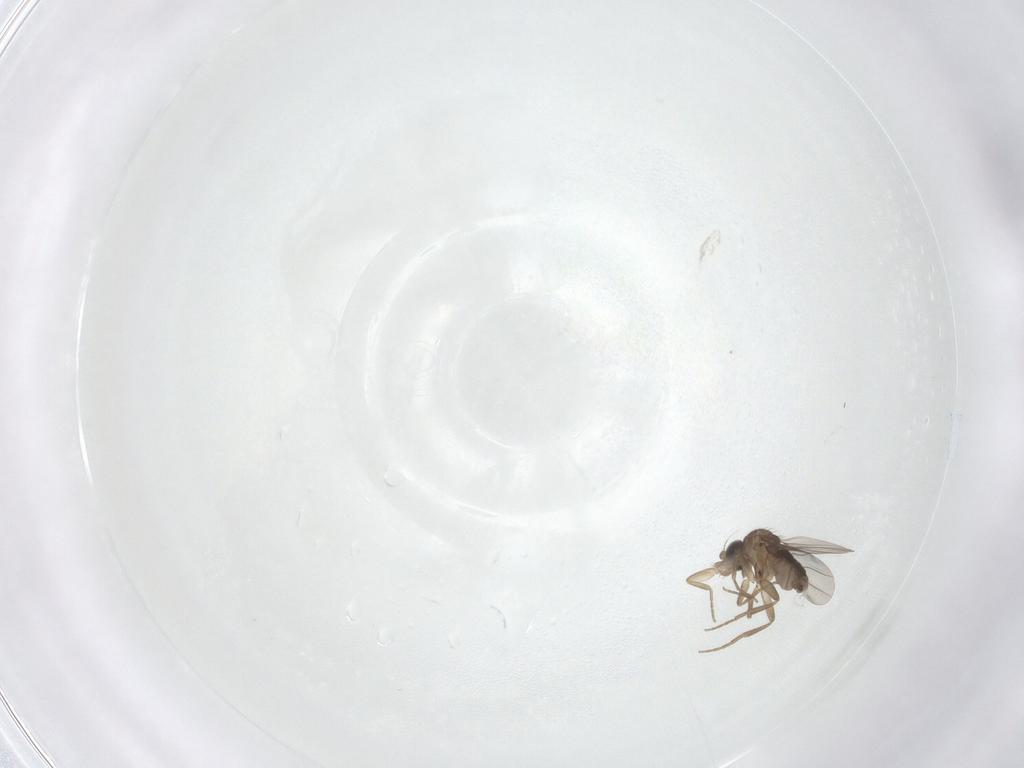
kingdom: Animalia
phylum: Arthropoda
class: Insecta
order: Diptera
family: Phoridae
